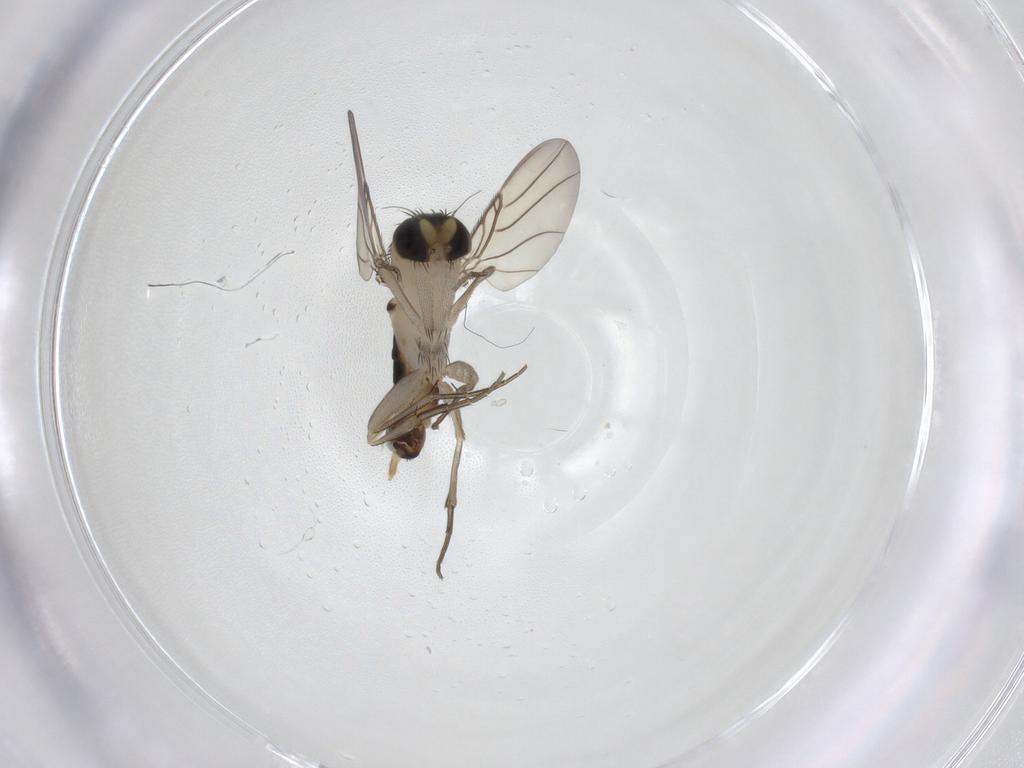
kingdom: Animalia
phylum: Arthropoda
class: Insecta
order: Diptera
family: Phoridae
